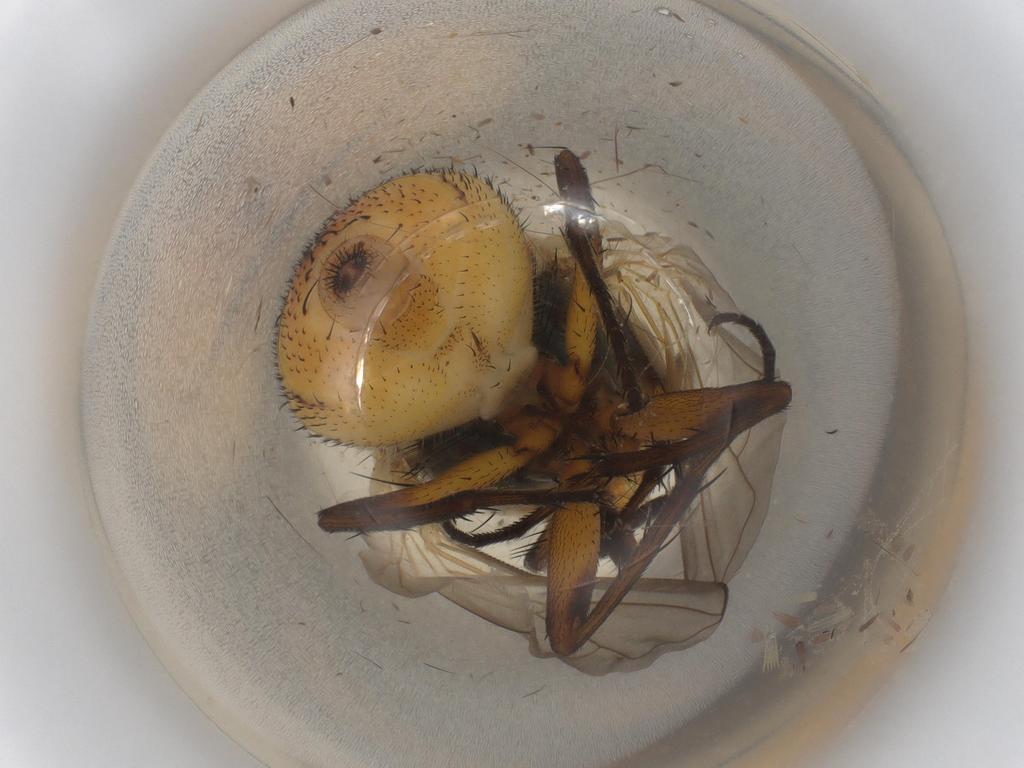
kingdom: Animalia
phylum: Arthropoda
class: Insecta
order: Diptera
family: Calliphoridae
